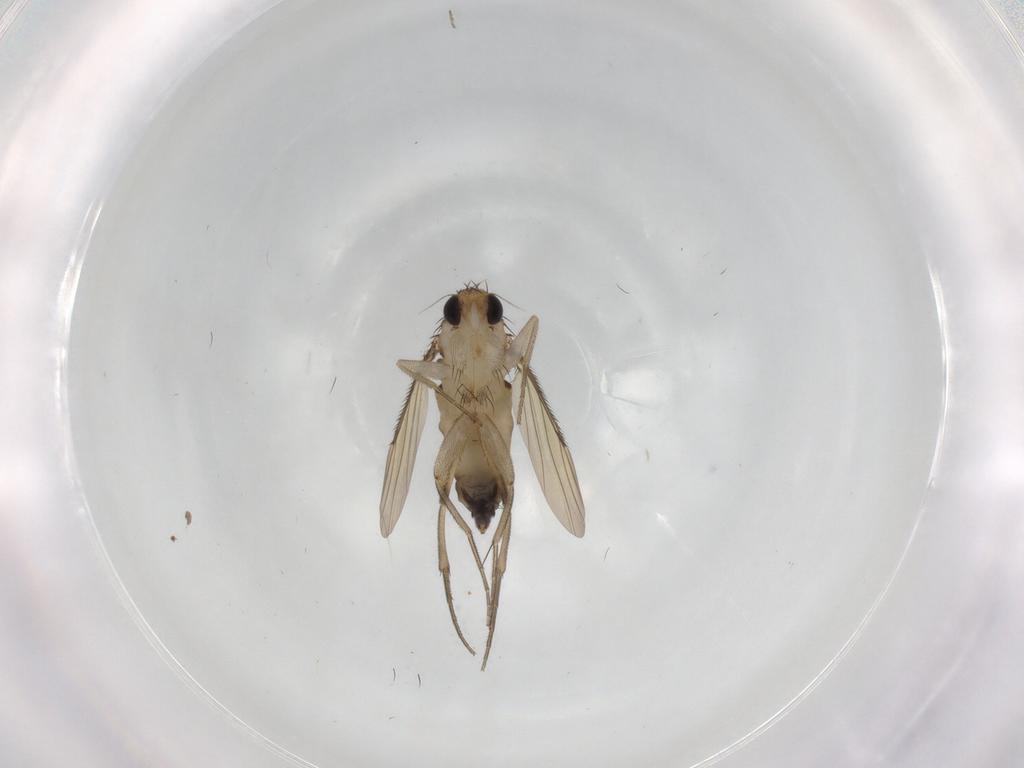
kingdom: Animalia
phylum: Arthropoda
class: Insecta
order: Diptera
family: Phoridae
